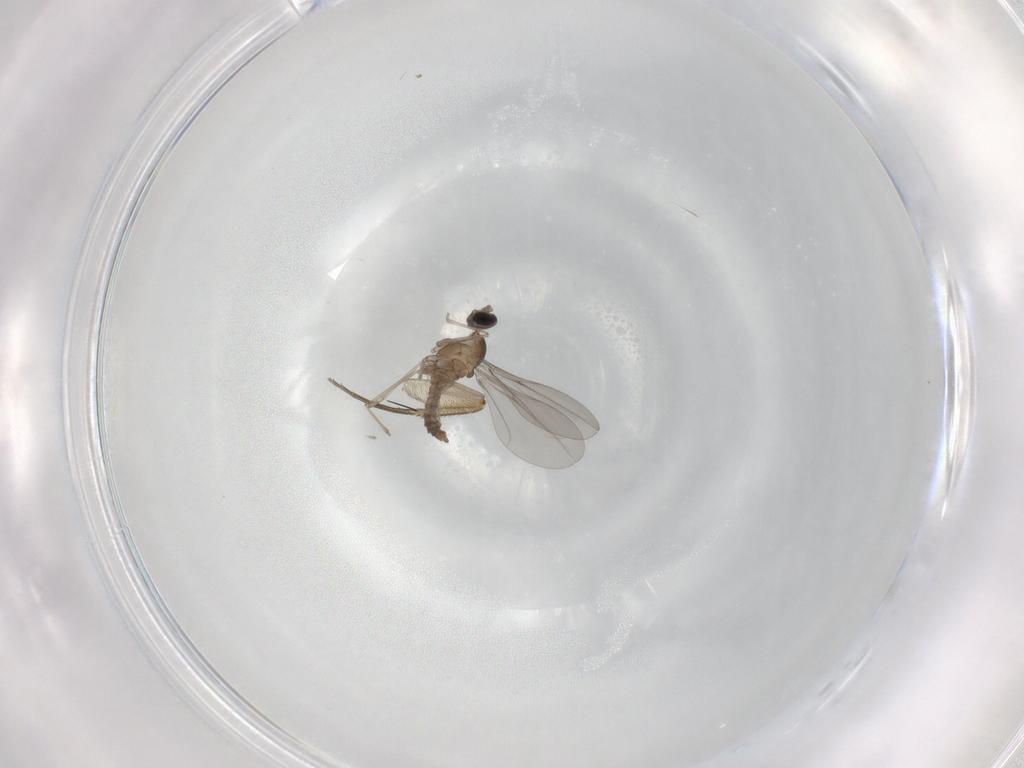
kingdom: Animalia
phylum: Arthropoda
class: Insecta
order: Diptera
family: Phoridae
